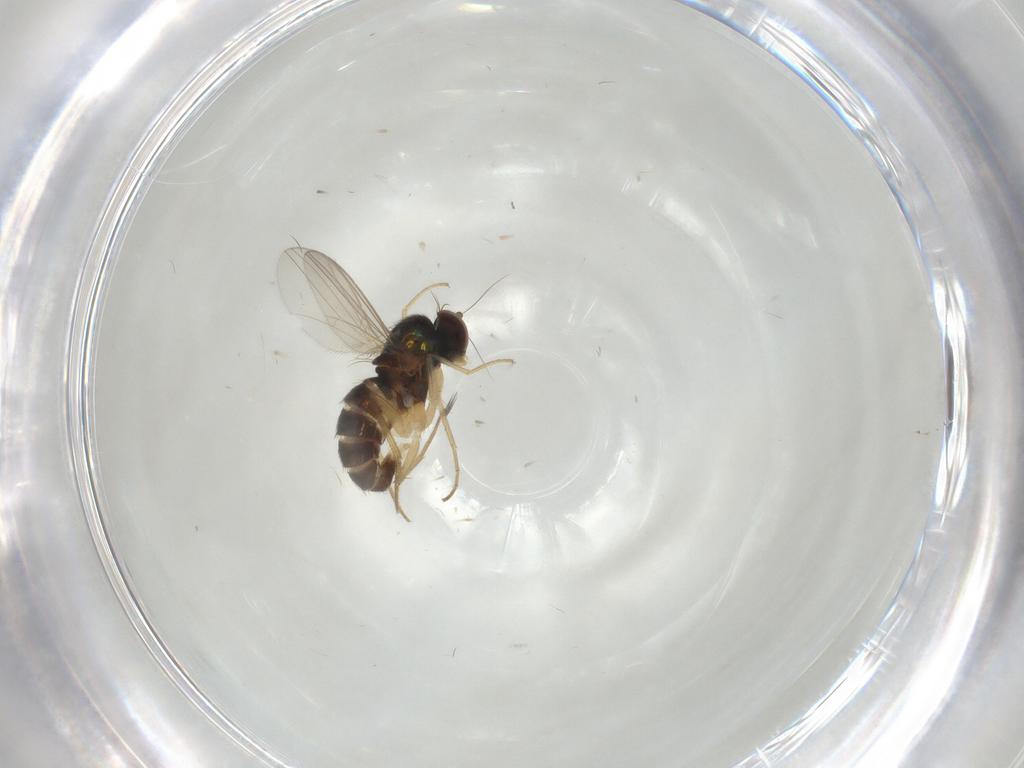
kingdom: Animalia
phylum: Arthropoda
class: Insecta
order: Diptera
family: Dolichopodidae
